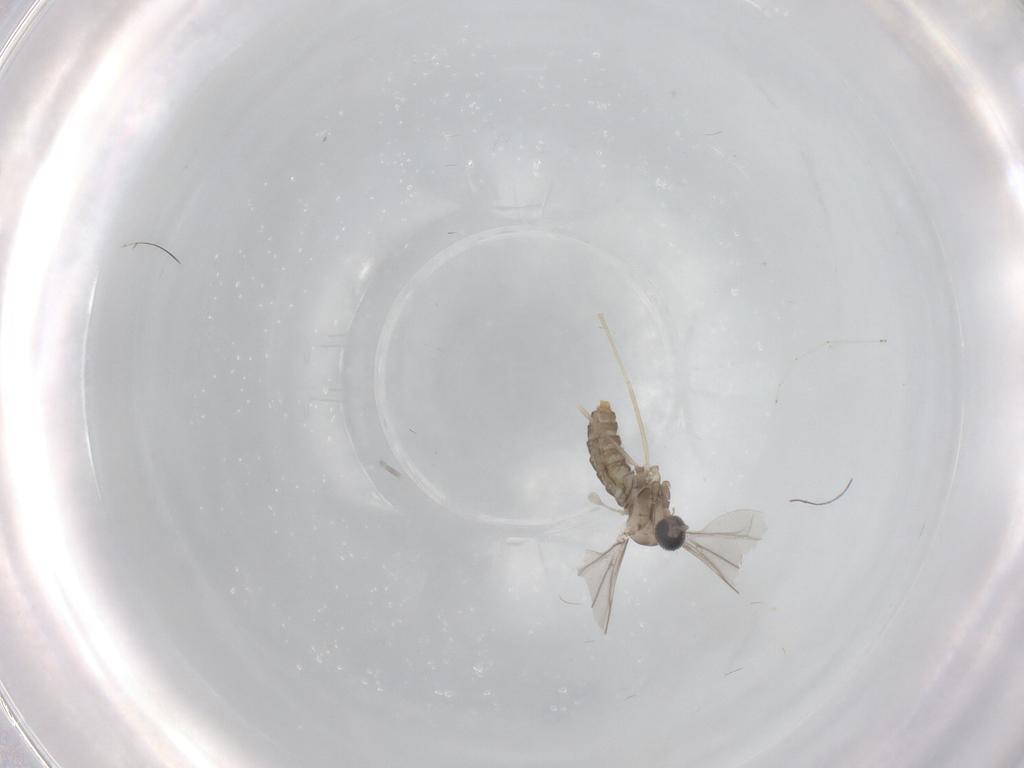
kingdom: Animalia
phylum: Arthropoda
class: Insecta
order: Diptera
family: Cecidomyiidae
